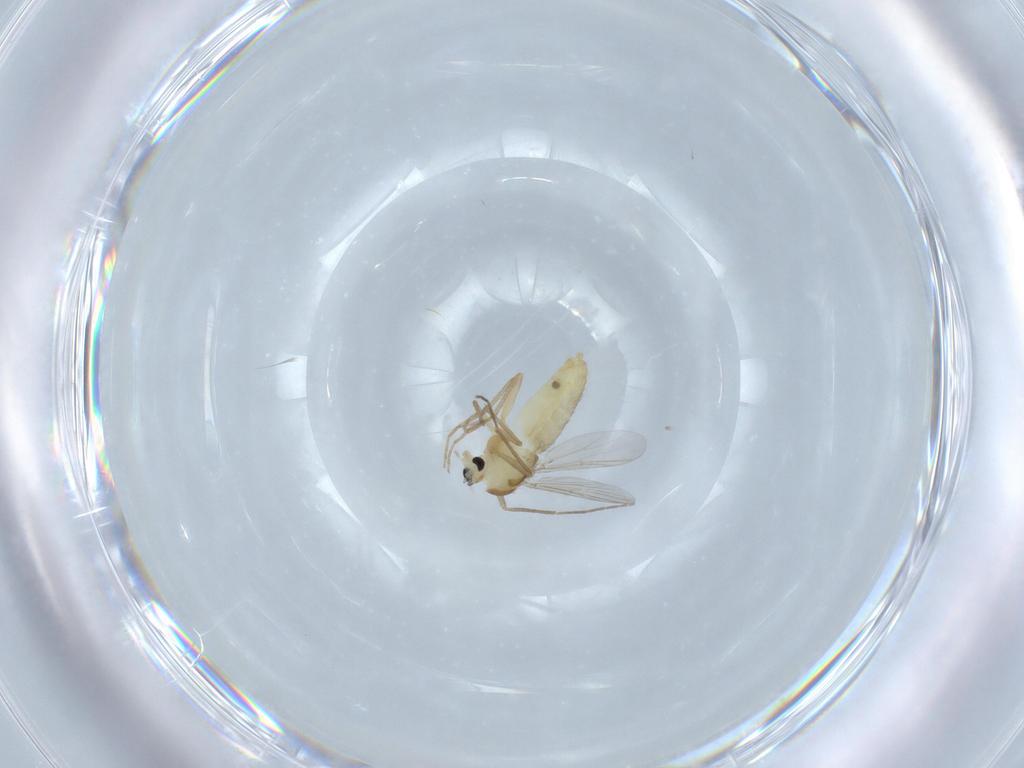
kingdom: Animalia
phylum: Arthropoda
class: Insecta
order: Diptera
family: Chironomidae
